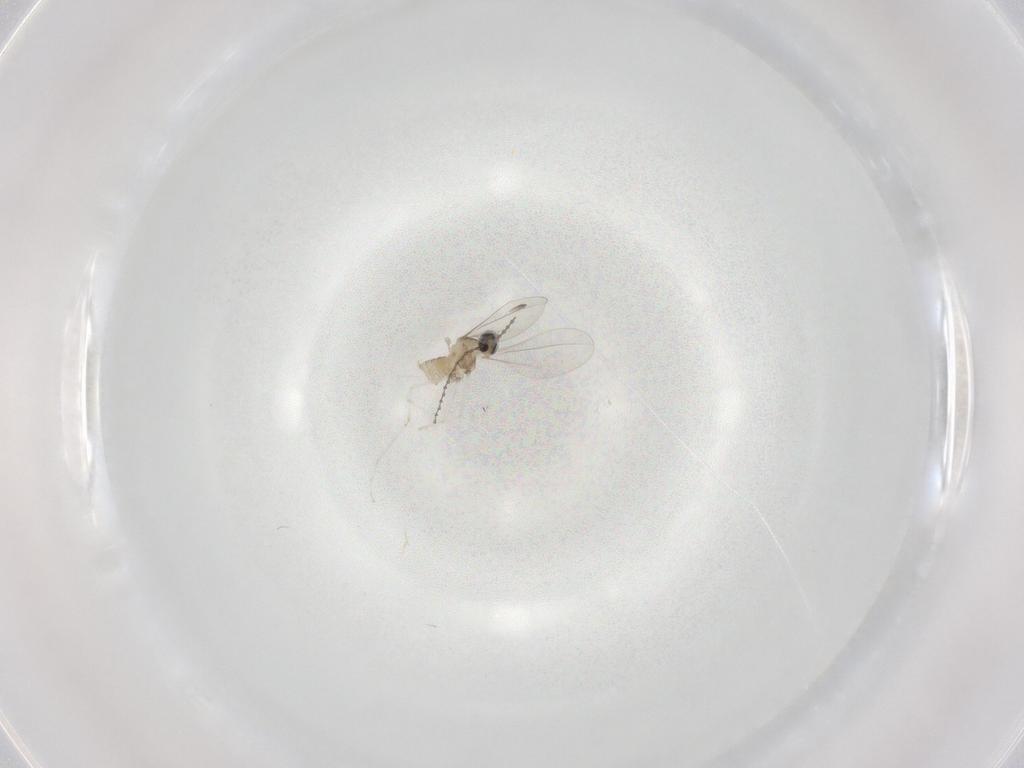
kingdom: Animalia
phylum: Arthropoda
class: Insecta
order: Diptera
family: Cecidomyiidae
